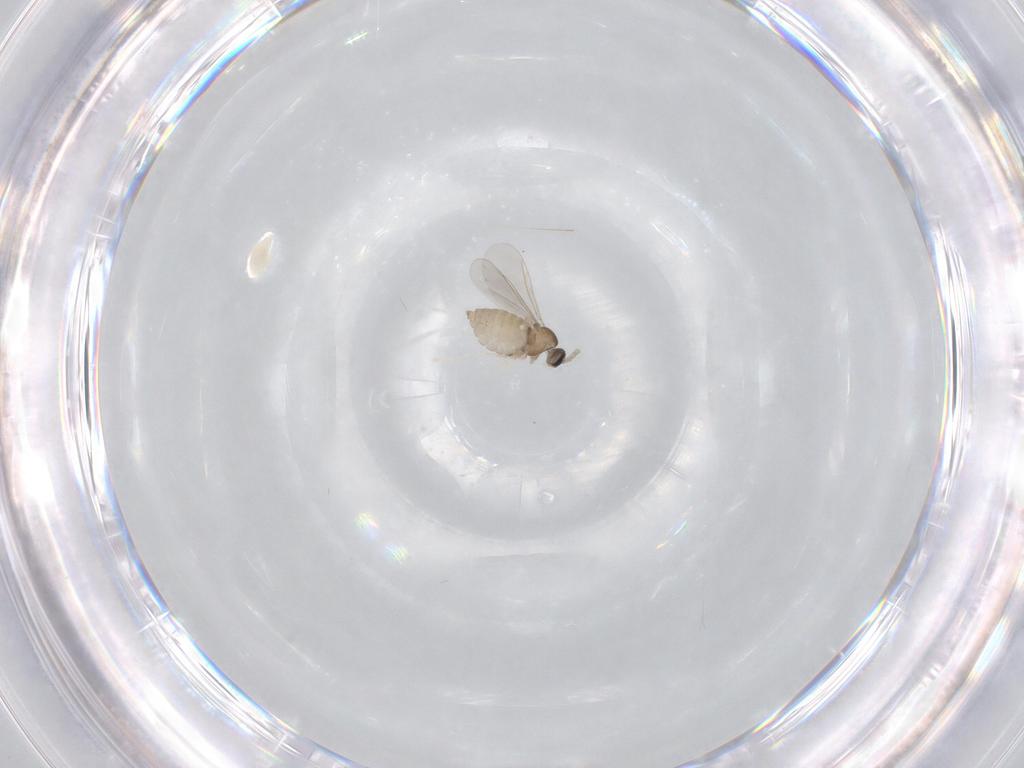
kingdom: Animalia
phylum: Arthropoda
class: Insecta
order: Diptera
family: Cecidomyiidae
